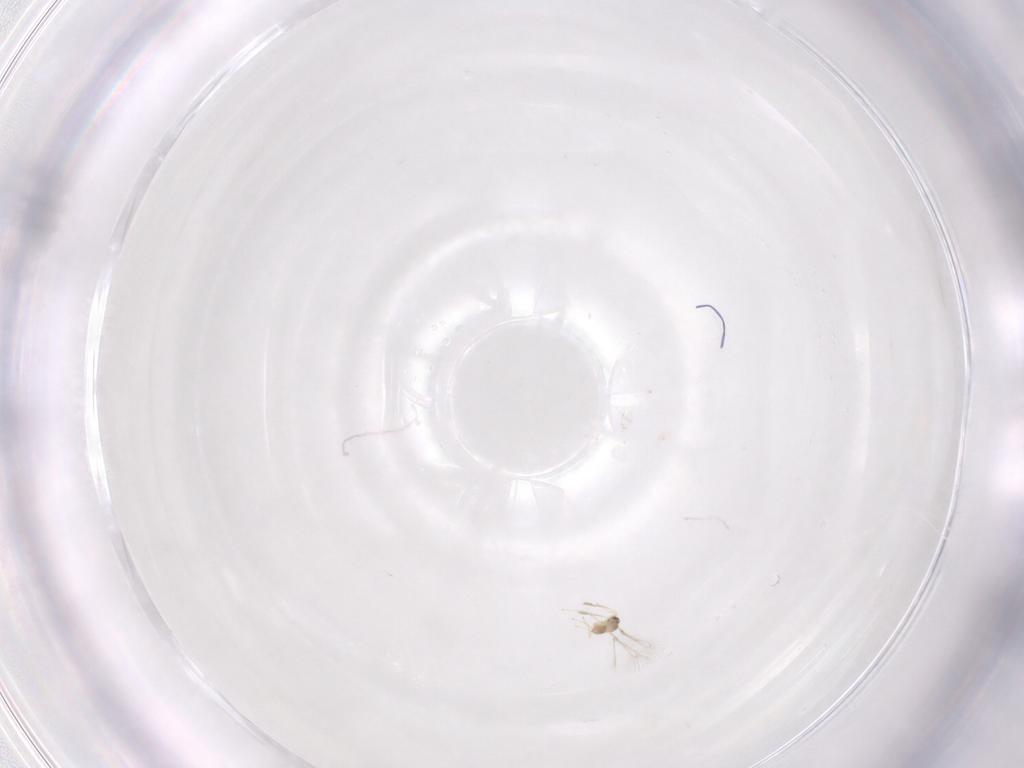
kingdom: Animalia
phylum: Arthropoda
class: Insecta
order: Hymenoptera
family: Mymaridae
